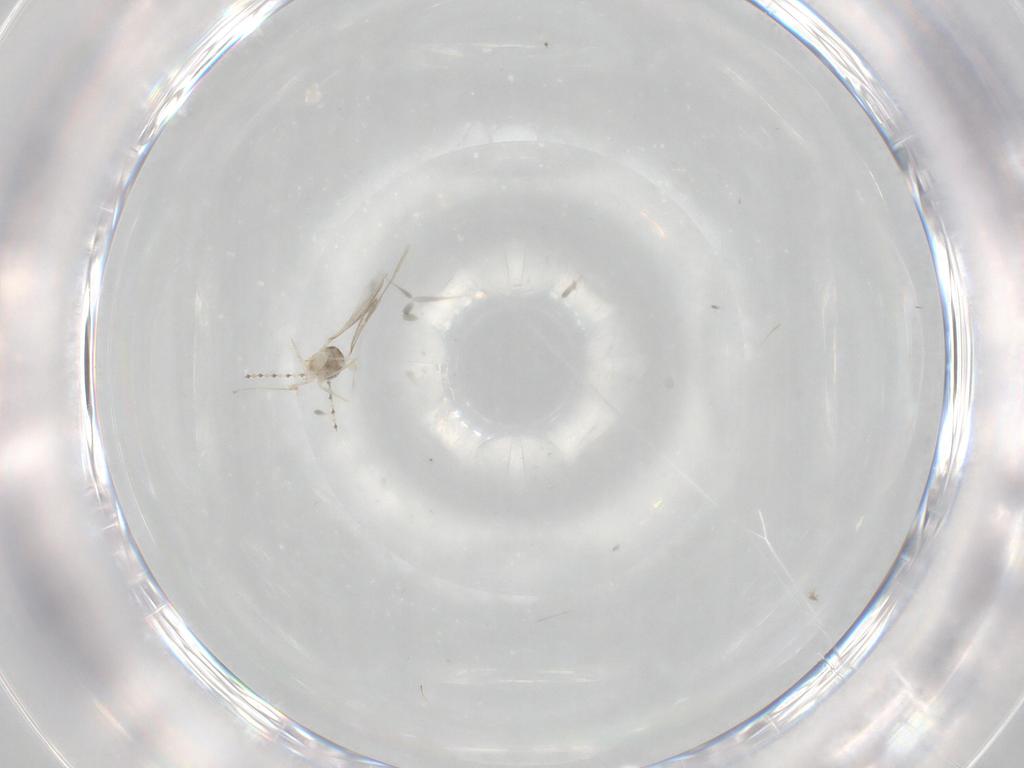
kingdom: Animalia
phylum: Arthropoda
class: Insecta
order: Diptera
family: Cecidomyiidae
